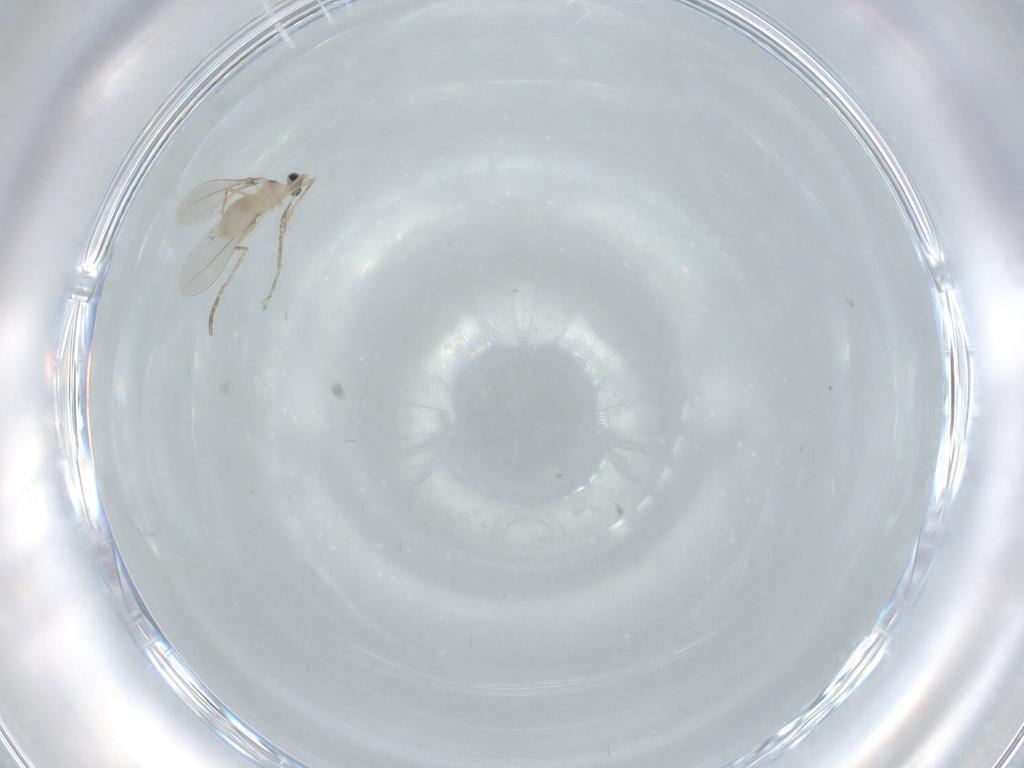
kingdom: Animalia
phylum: Arthropoda
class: Insecta
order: Diptera
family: Cecidomyiidae
